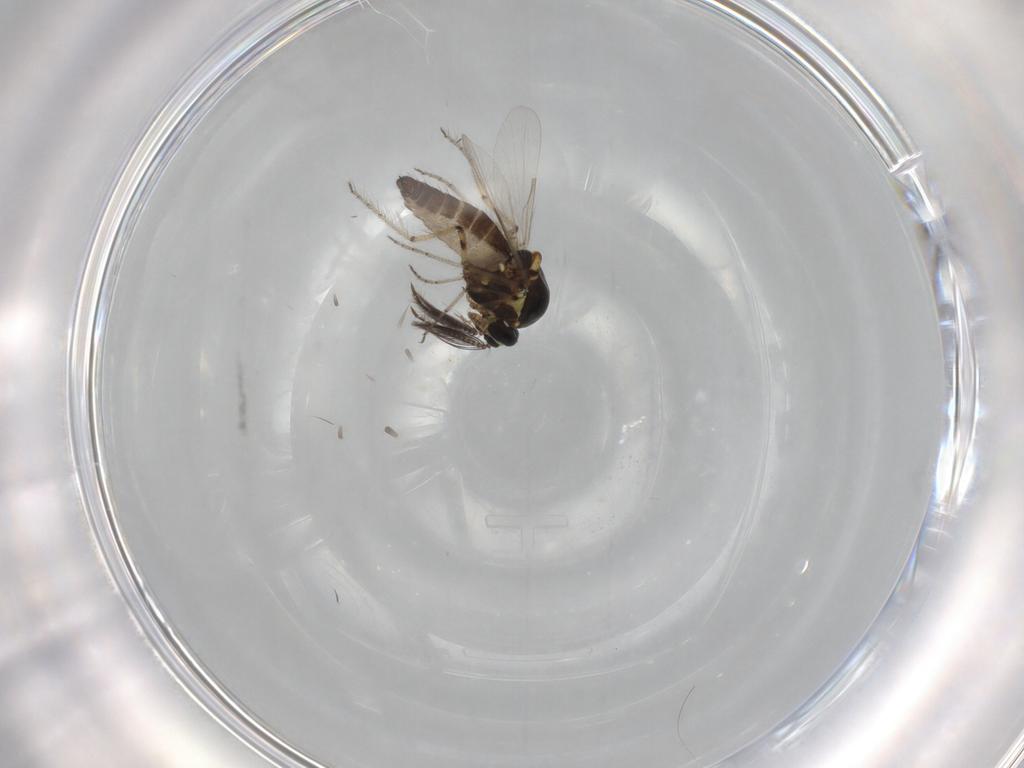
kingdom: Animalia
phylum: Arthropoda
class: Insecta
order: Diptera
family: Ceratopogonidae
